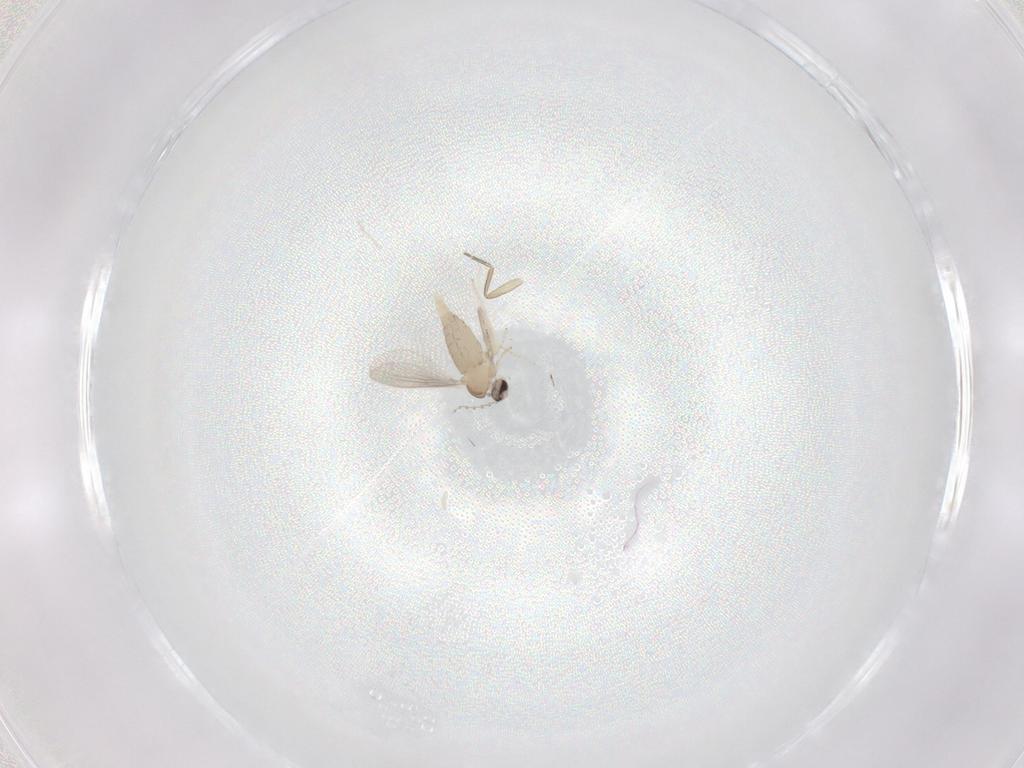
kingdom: Animalia
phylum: Arthropoda
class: Insecta
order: Diptera
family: Cecidomyiidae
